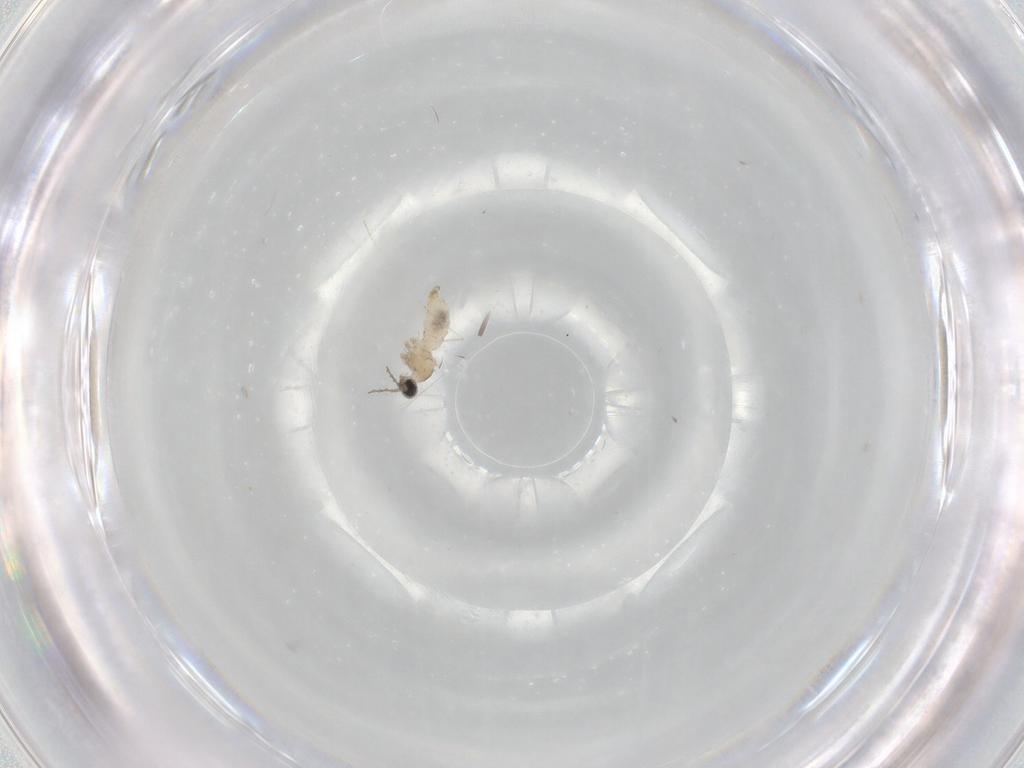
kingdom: Animalia
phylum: Arthropoda
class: Insecta
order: Diptera
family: Cecidomyiidae
